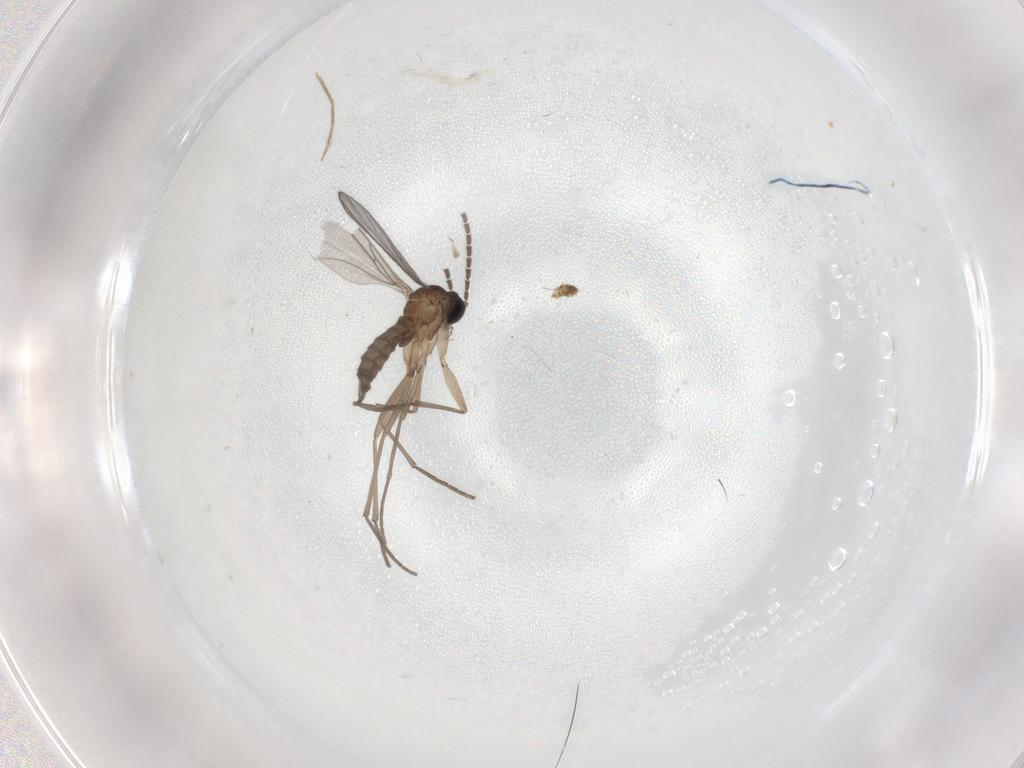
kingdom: Animalia
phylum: Arthropoda
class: Insecta
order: Diptera
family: Sciaridae
